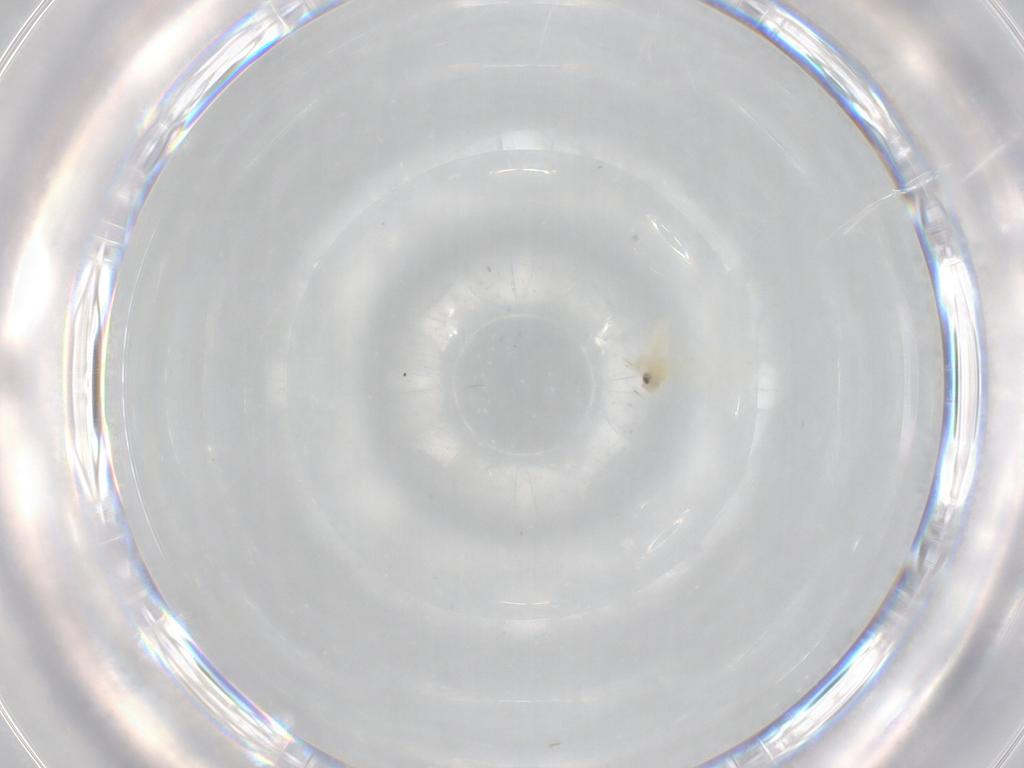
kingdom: Animalia
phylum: Arthropoda
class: Insecta
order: Hemiptera
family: Aleyrodidae
